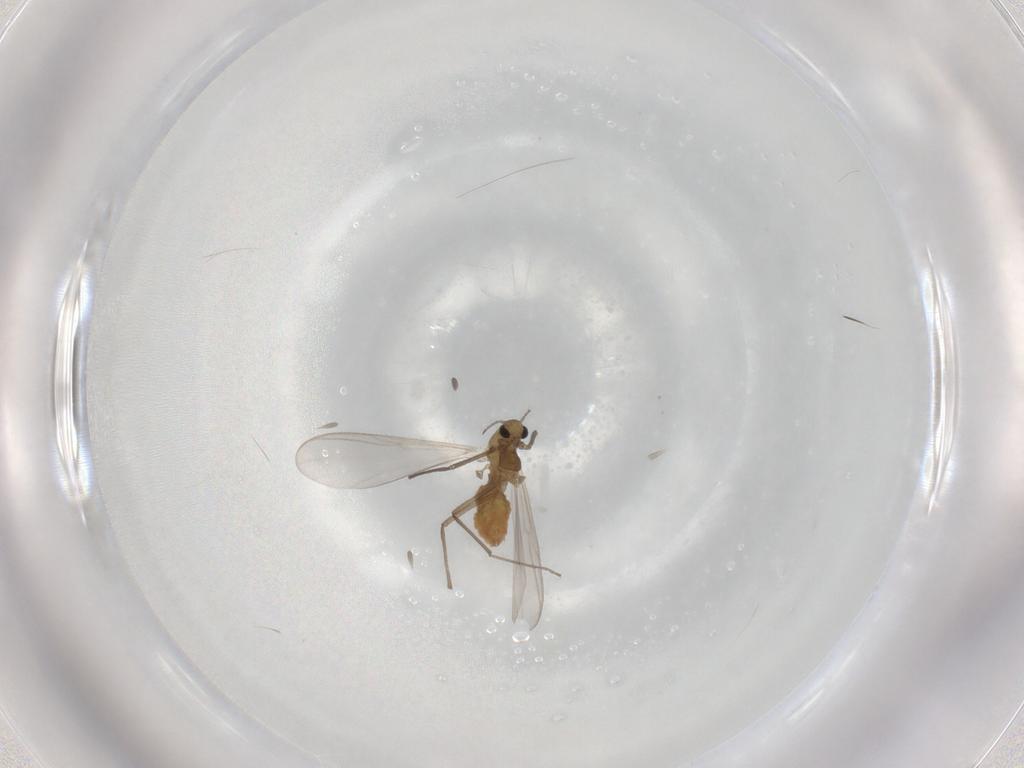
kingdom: Animalia
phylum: Arthropoda
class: Insecta
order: Diptera
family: Chironomidae
